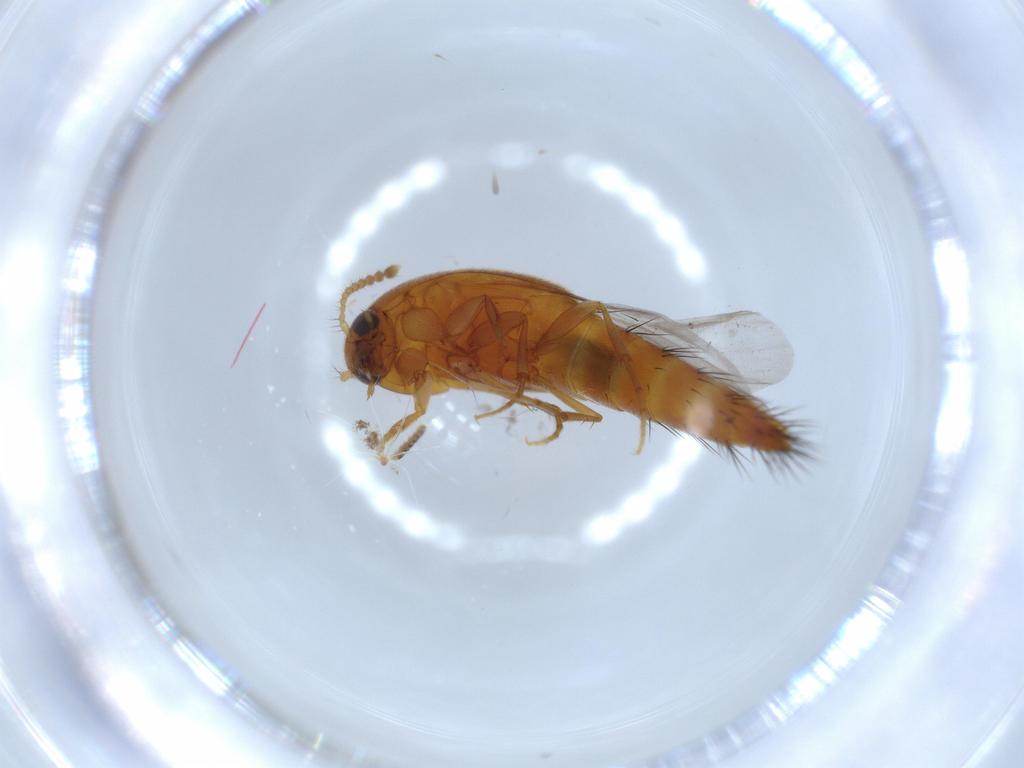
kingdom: Animalia
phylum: Arthropoda
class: Insecta
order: Coleoptera
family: Staphylinidae
